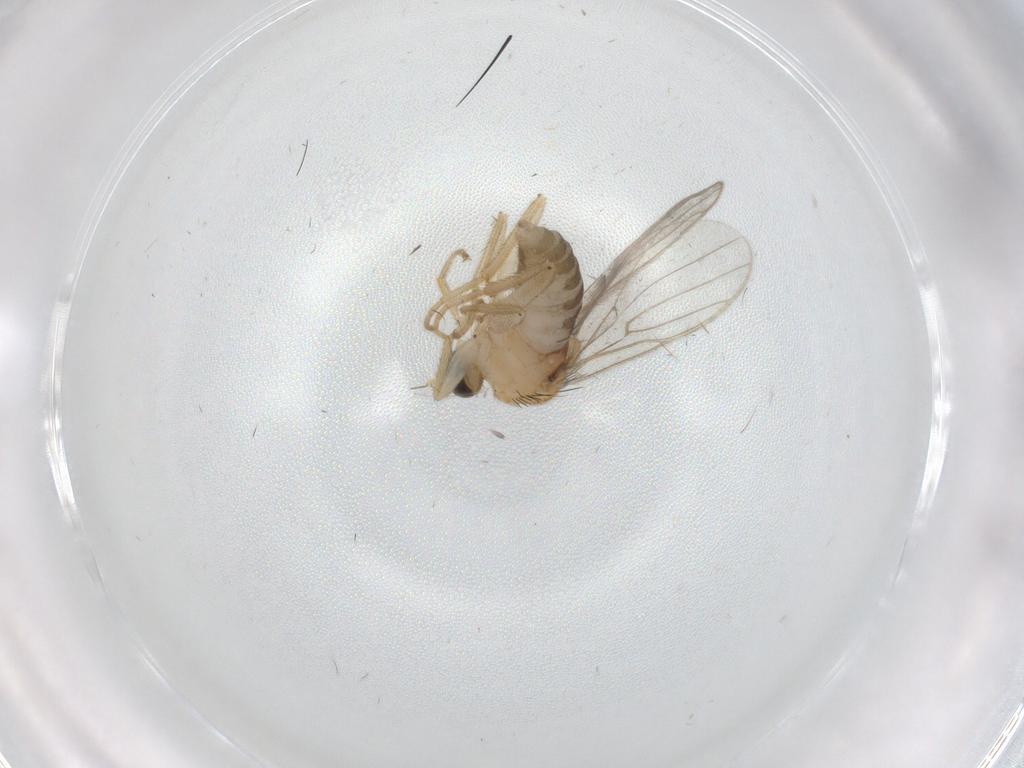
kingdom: Animalia
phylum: Arthropoda
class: Insecta
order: Diptera
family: Hybotidae
